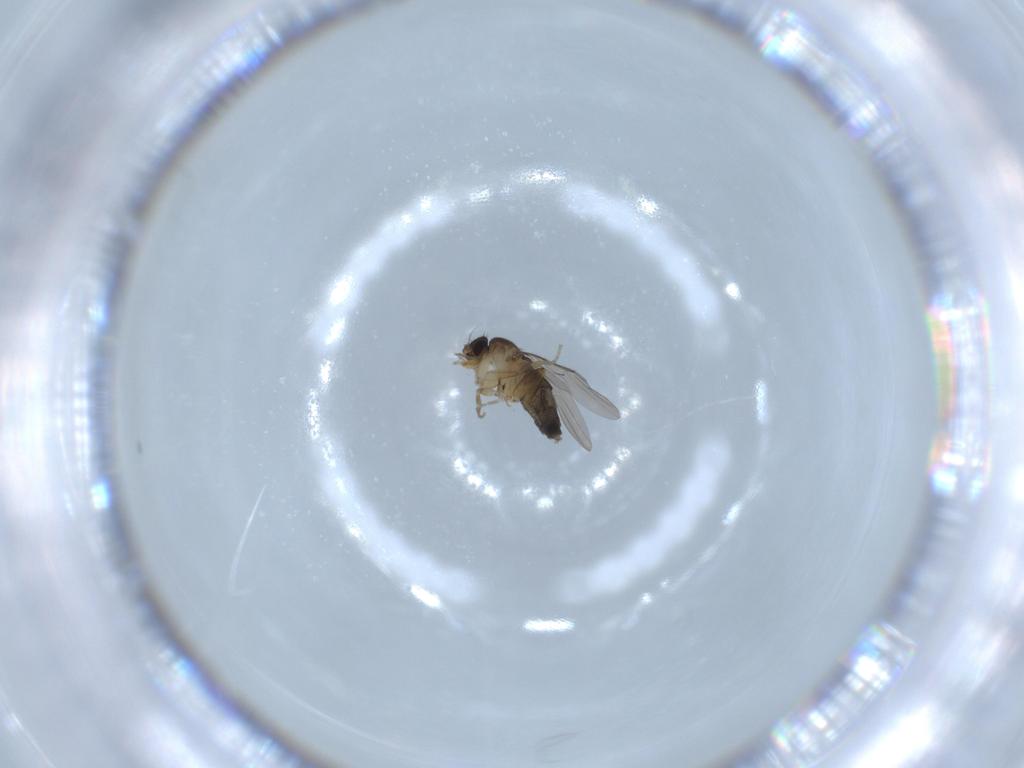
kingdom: Animalia
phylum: Arthropoda
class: Insecta
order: Diptera
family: Phoridae
